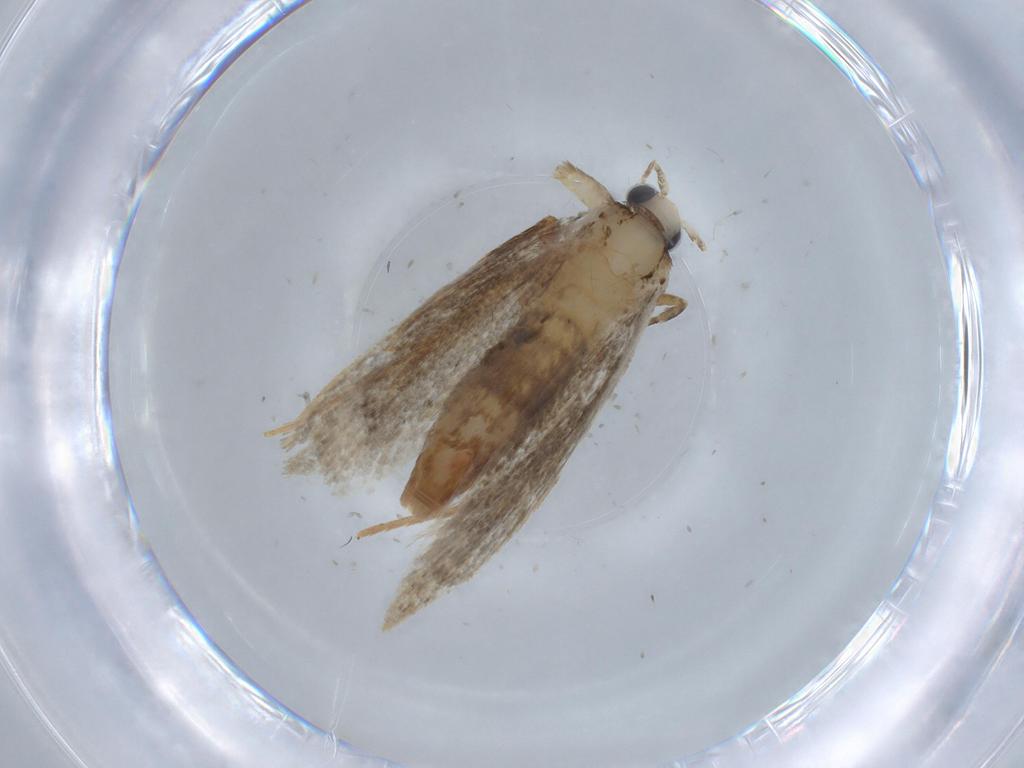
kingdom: Animalia
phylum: Arthropoda
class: Insecta
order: Lepidoptera
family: Tineidae
